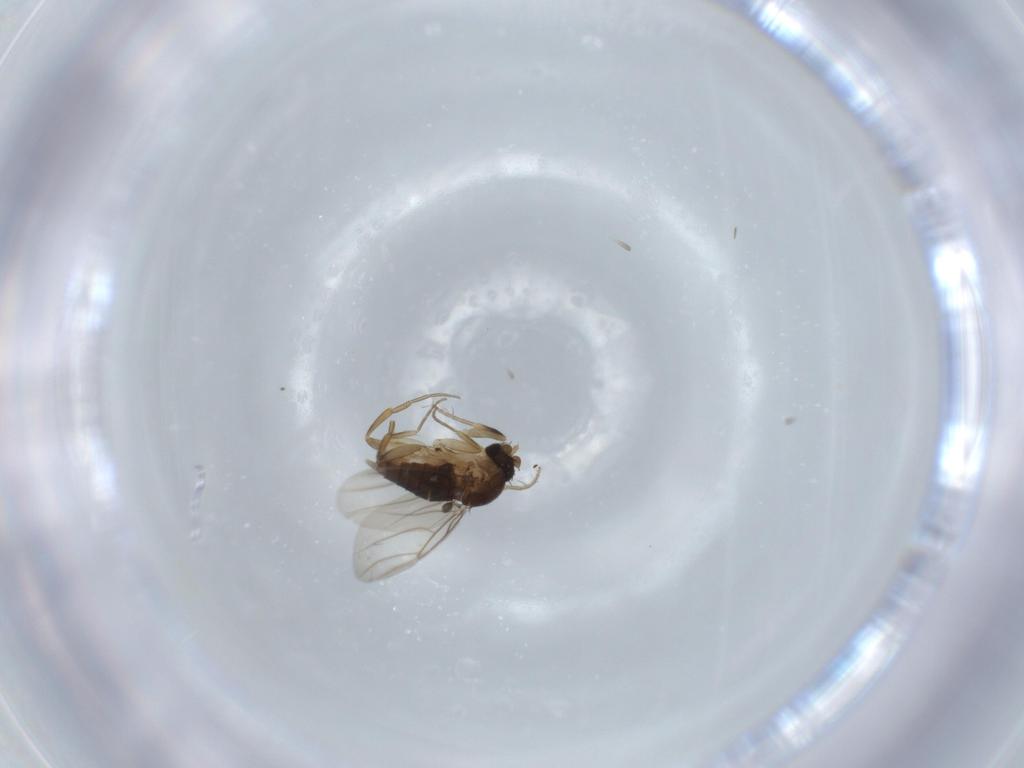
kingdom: Animalia
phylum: Arthropoda
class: Insecta
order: Diptera
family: Phoridae
